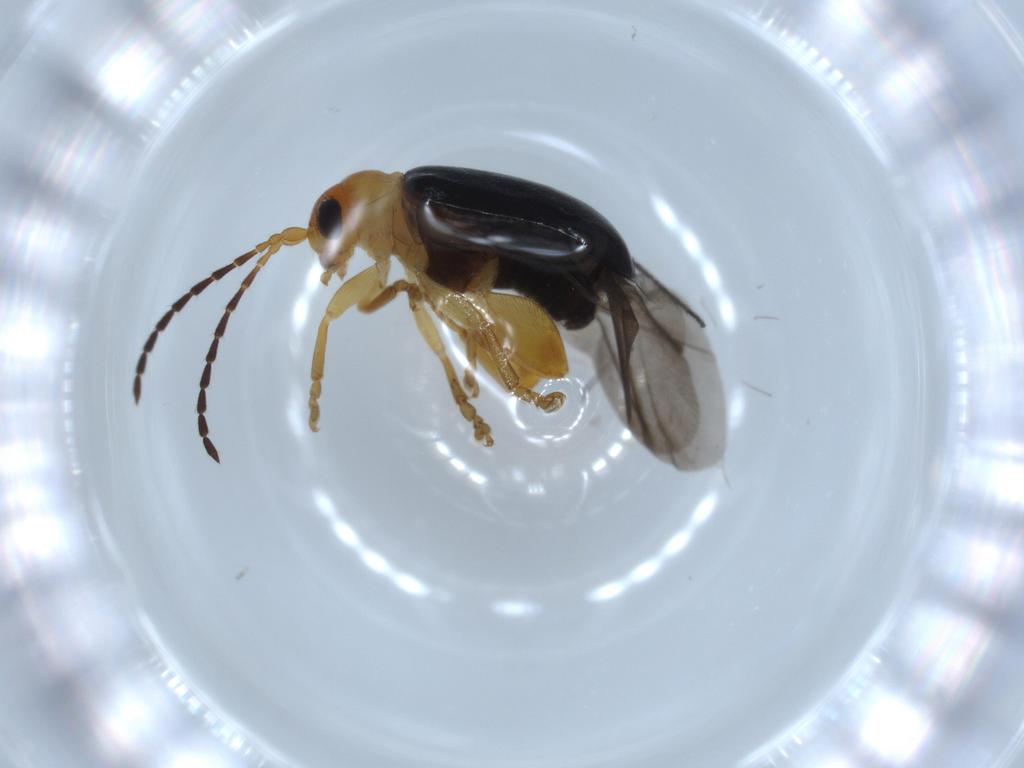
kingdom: Animalia
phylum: Arthropoda
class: Insecta
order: Coleoptera
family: Chrysomelidae
